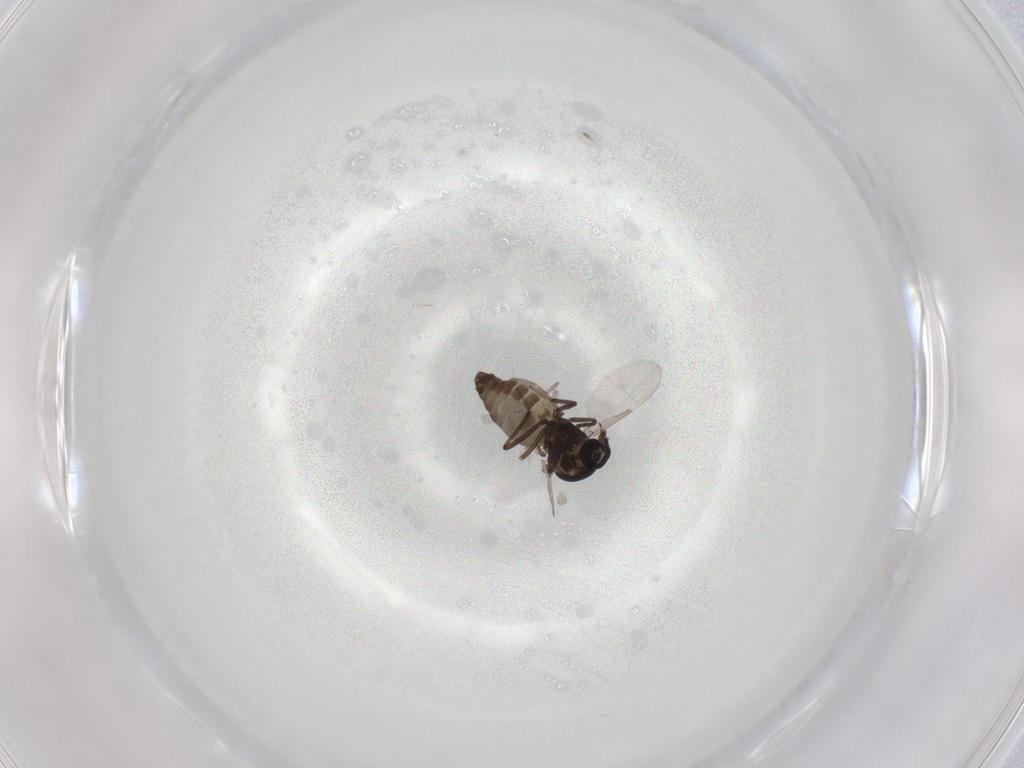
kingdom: Animalia
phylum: Arthropoda
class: Insecta
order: Diptera
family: Ceratopogonidae
